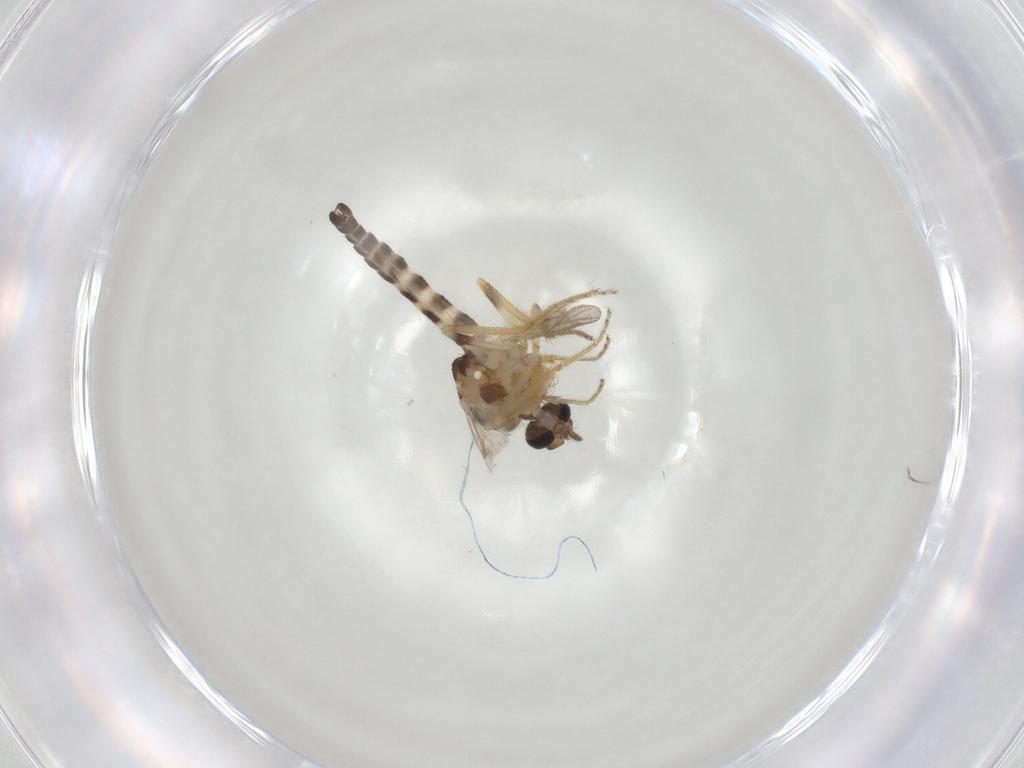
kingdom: Animalia
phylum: Arthropoda
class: Insecta
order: Diptera
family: Ceratopogonidae
